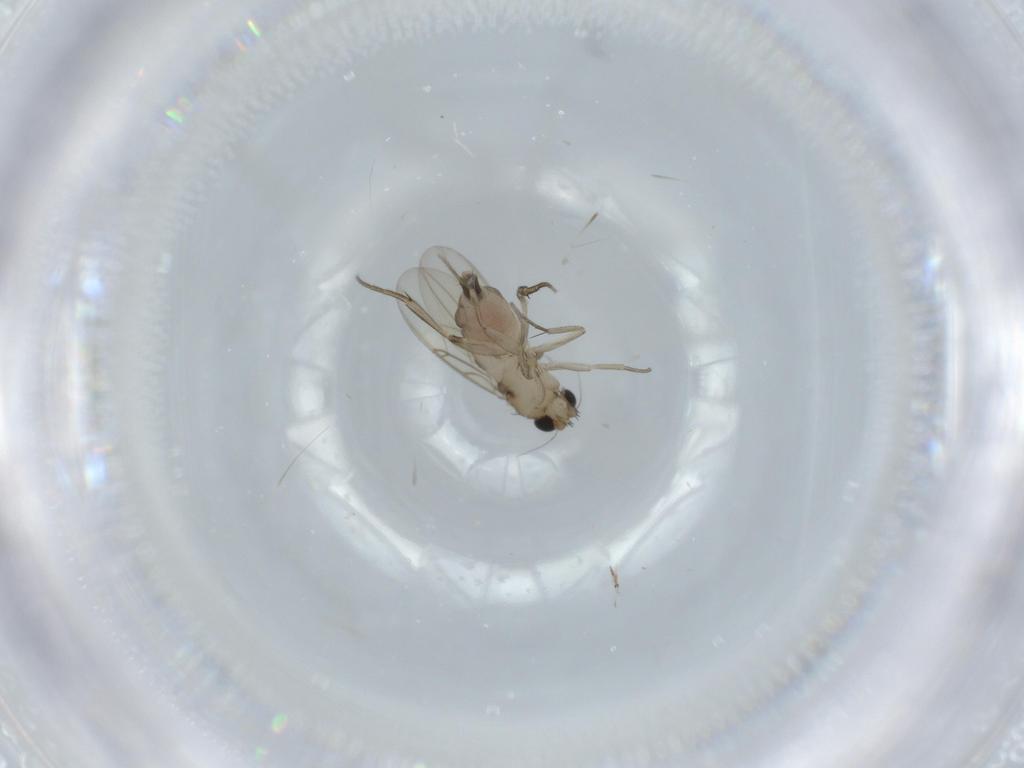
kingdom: Animalia
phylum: Arthropoda
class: Insecta
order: Diptera
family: Phoridae
